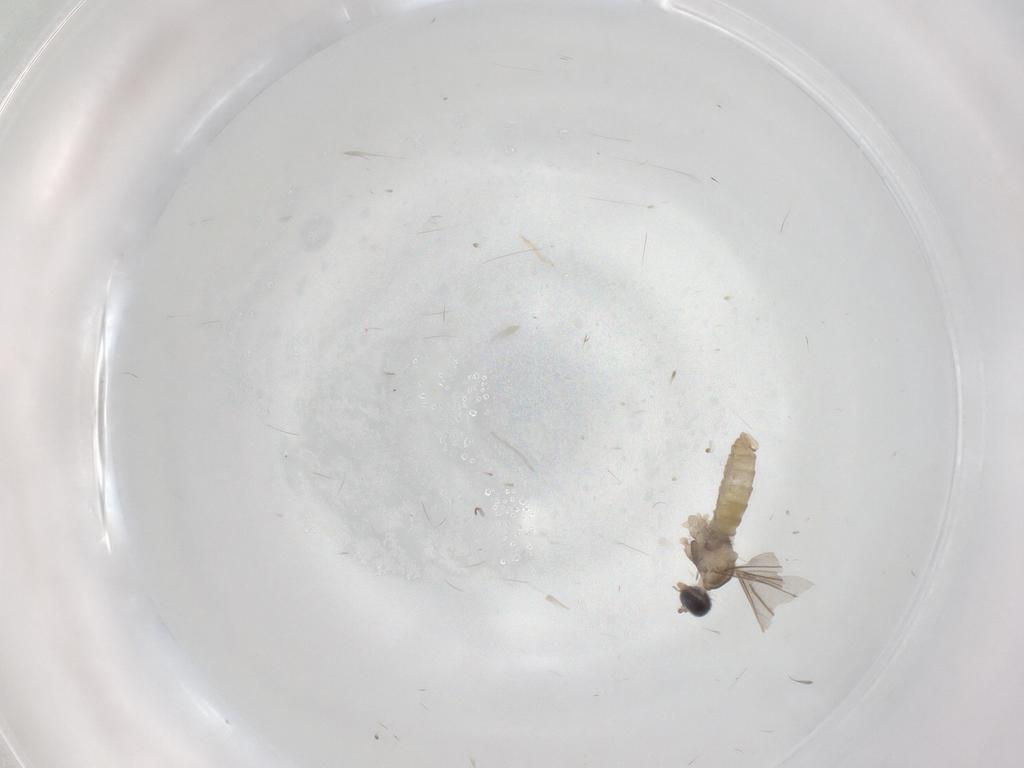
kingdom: Animalia
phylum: Arthropoda
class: Insecta
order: Diptera
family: Cecidomyiidae
